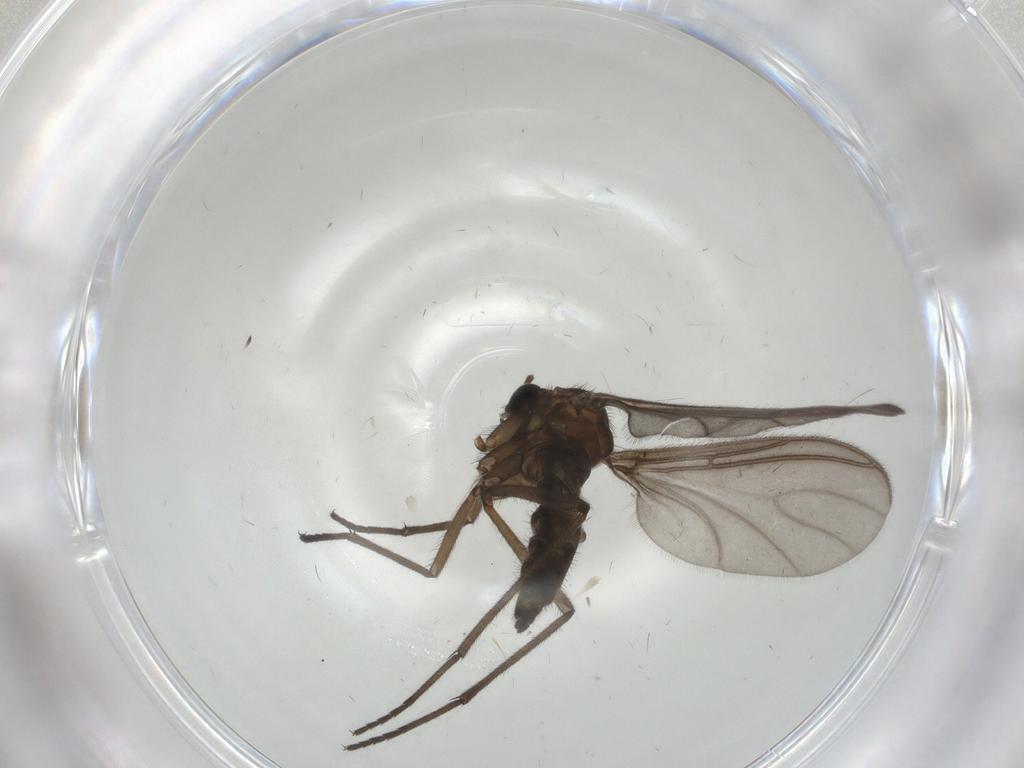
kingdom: Animalia
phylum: Arthropoda
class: Insecta
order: Diptera
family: Sciaridae
